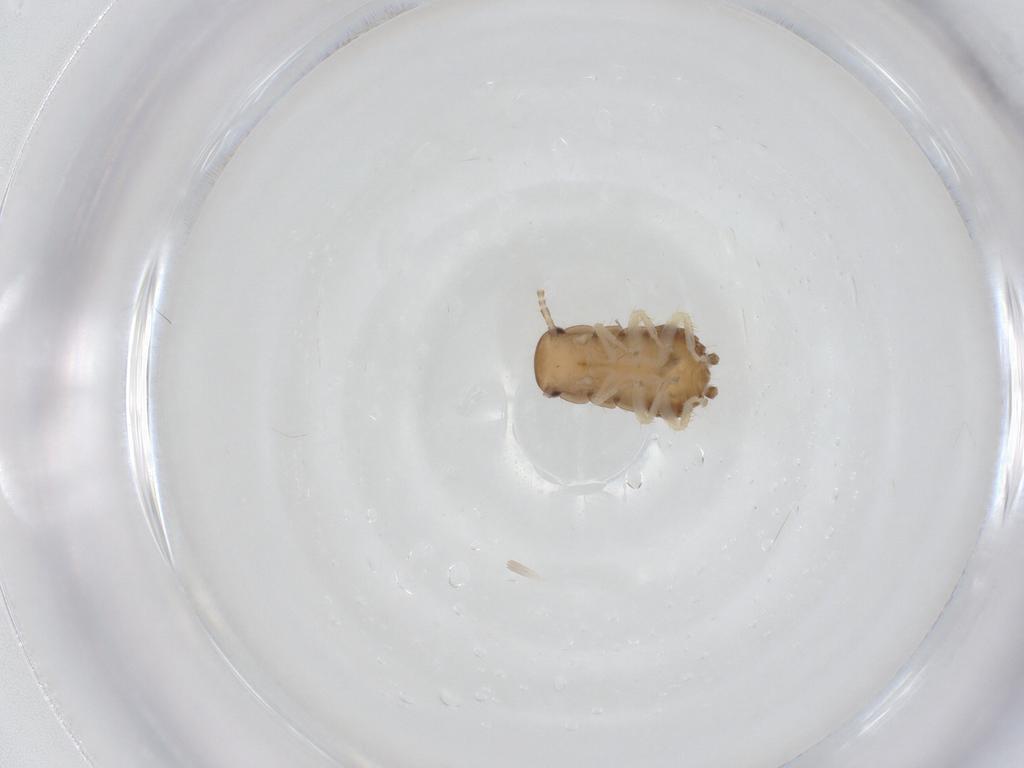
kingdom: Animalia
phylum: Arthropoda
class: Insecta
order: Blattodea
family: Ectobiidae
